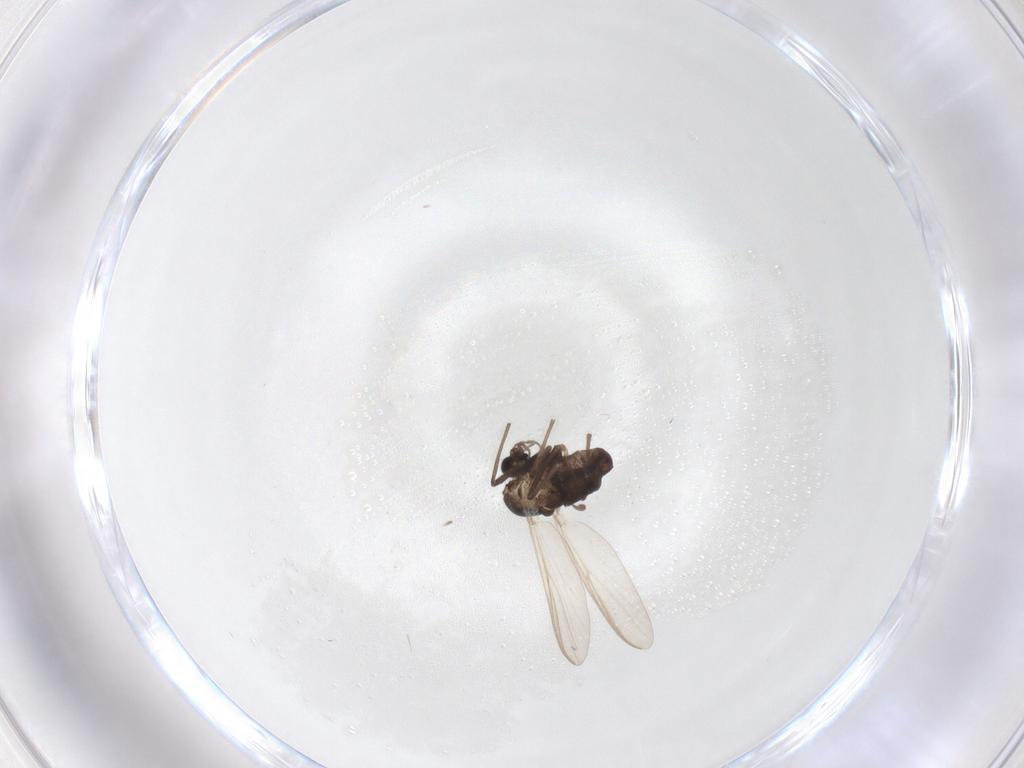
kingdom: Animalia
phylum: Arthropoda
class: Insecta
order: Diptera
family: Chironomidae
